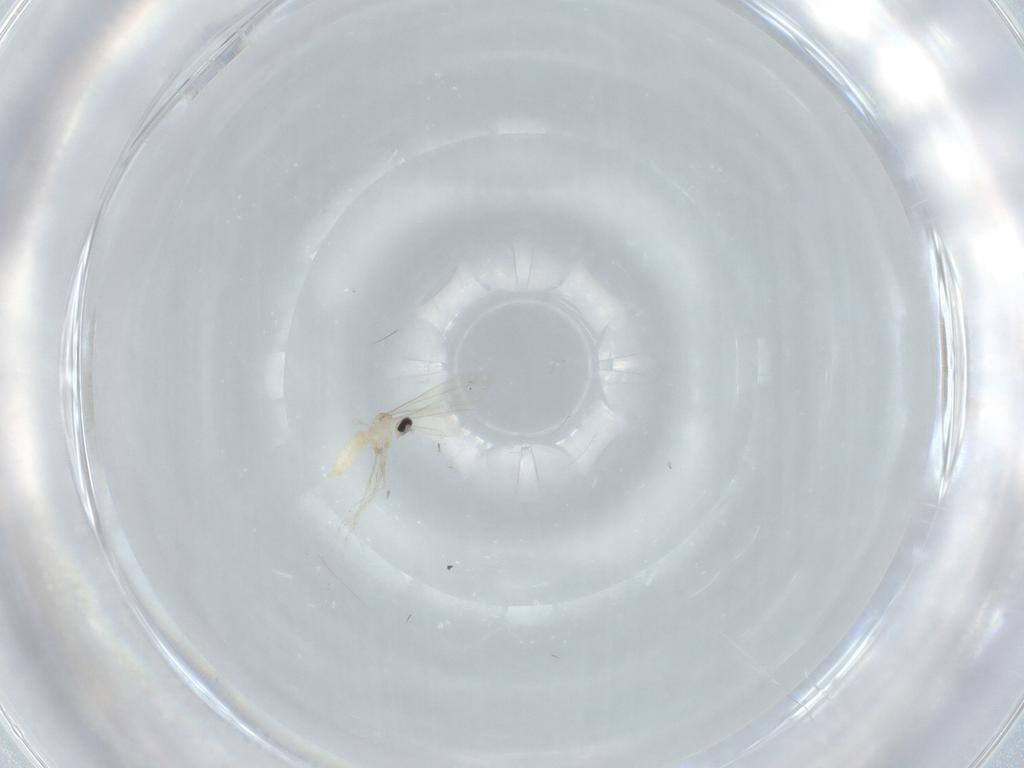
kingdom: Animalia
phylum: Arthropoda
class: Insecta
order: Diptera
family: Cecidomyiidae
